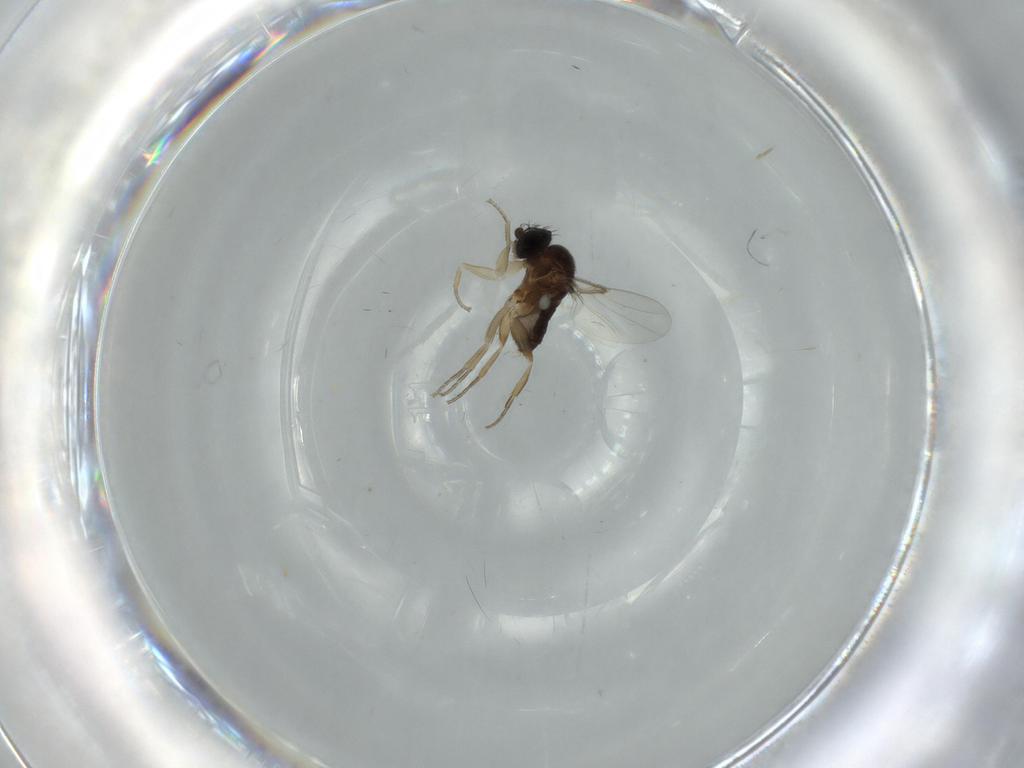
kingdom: Animalia
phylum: Arthropoda
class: Insecta
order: Diptera
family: Phoridae
